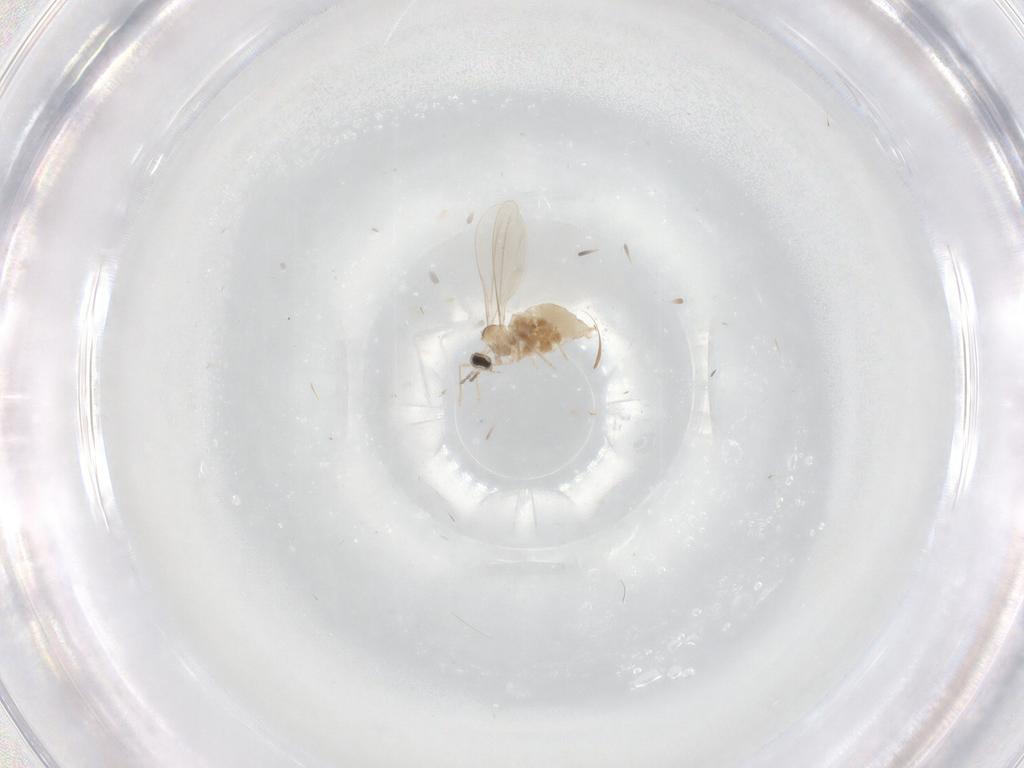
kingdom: Animalia
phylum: Arthropoda
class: Insecta
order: Diptera
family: Phoridae
